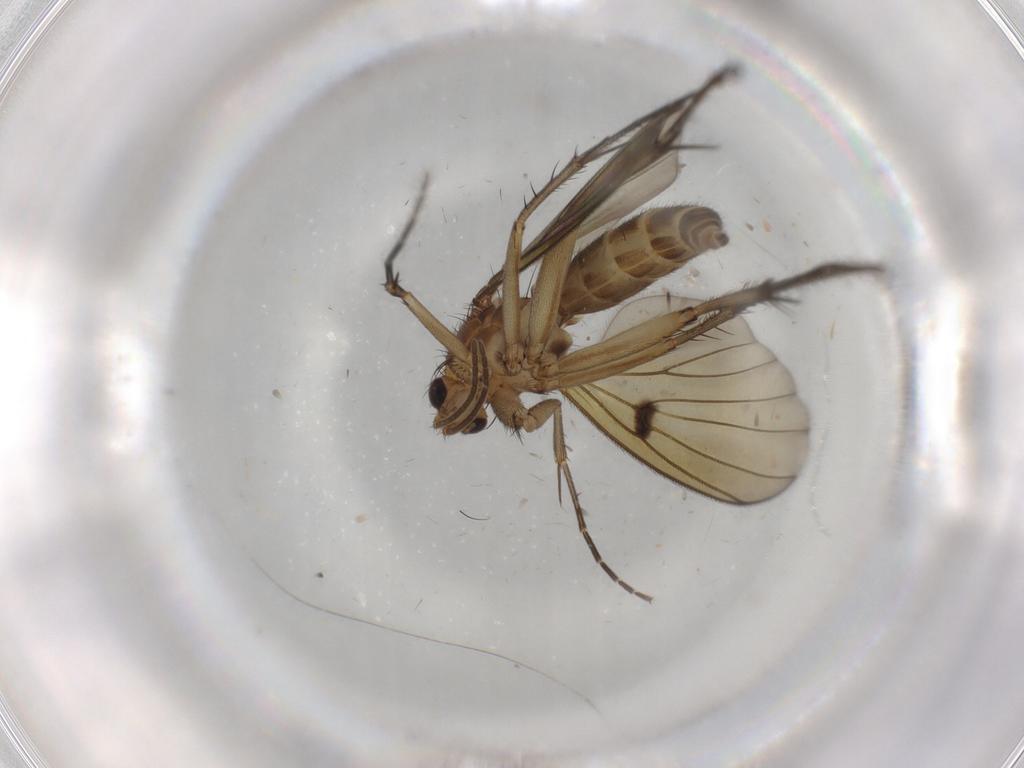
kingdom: Animalia
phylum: Arthropoda
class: Insecta
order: Diptera
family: Mycetophilidae
